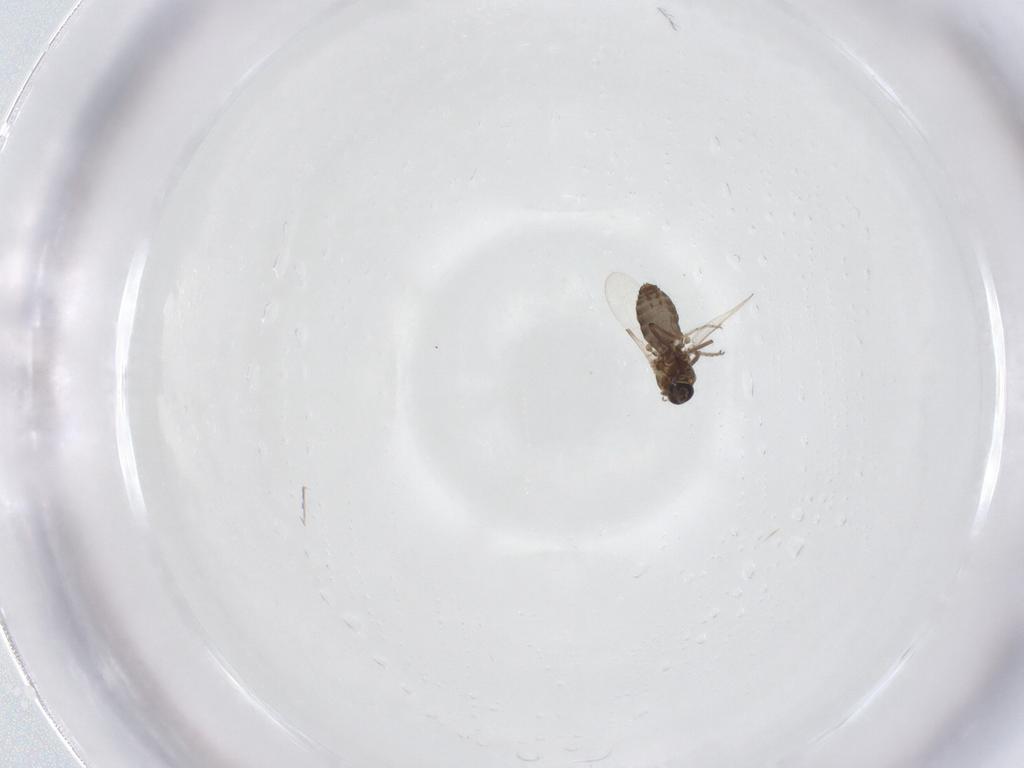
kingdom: Animalia
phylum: Arthropoda
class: Insecta
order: Diptera
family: Ceratopogonidae
